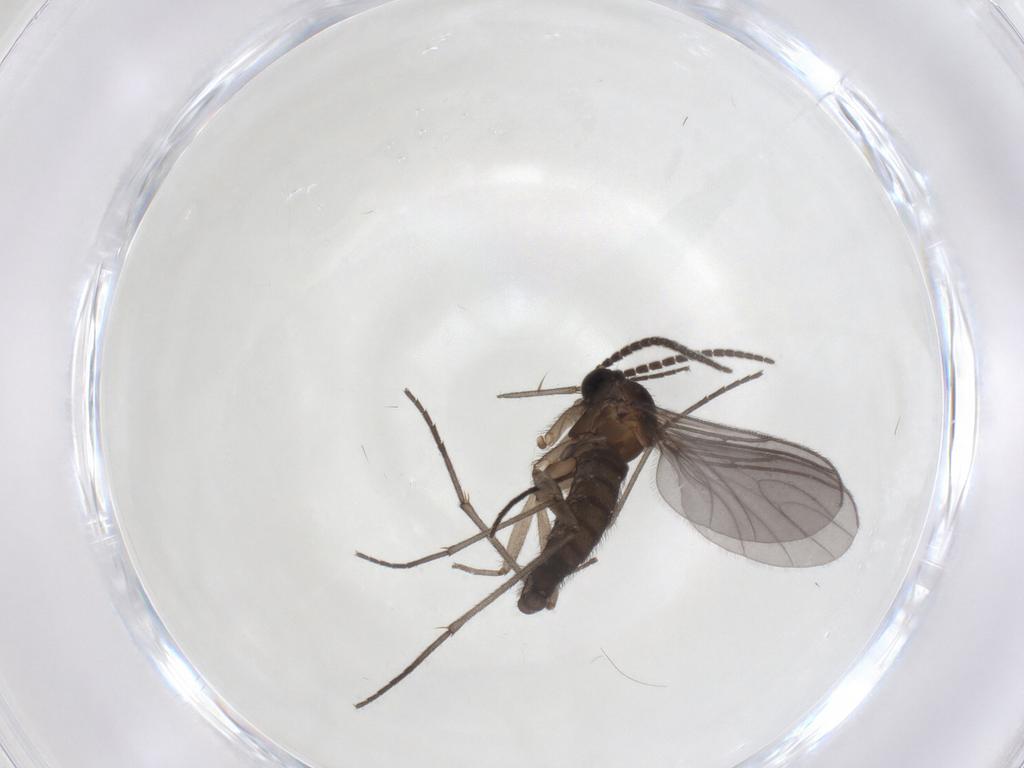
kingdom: Animalia
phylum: Arthropoda
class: Insecta
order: Diptera
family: Sciaridae
